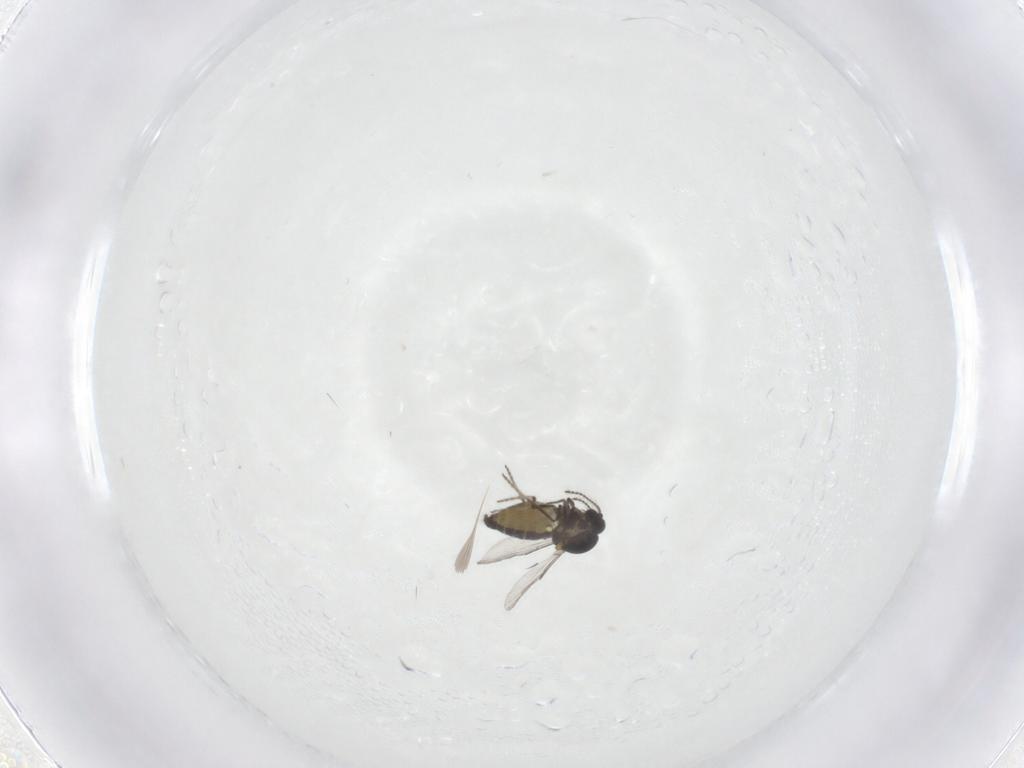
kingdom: Animalia
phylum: Arthropoda
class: Insecta
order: Diptera
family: Ceratopogonidae
